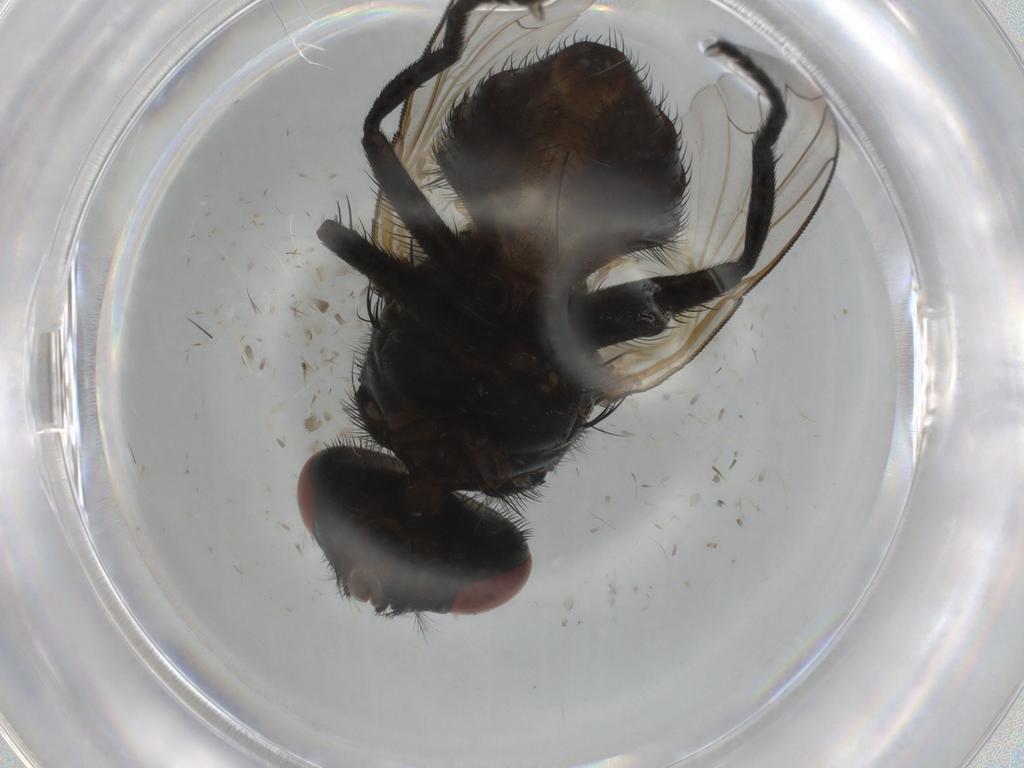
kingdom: Animalia
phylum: Arthropoda
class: Insecta
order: Diptera
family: Muscidae
